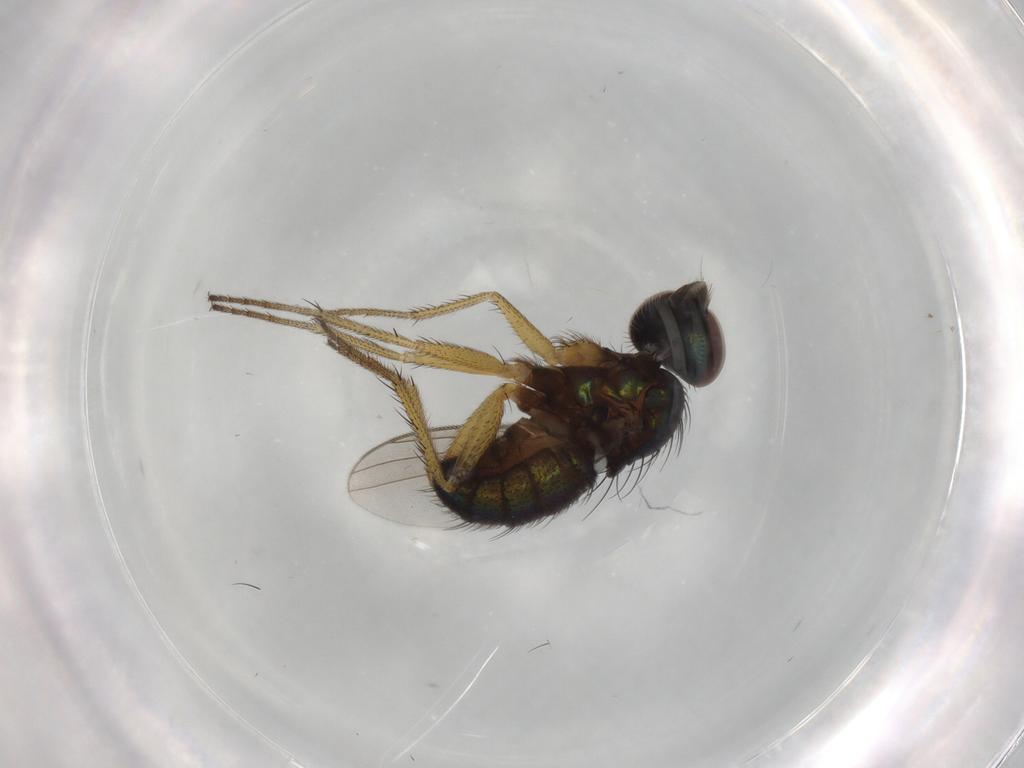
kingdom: Animalia
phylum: Arthropoda
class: Insecta
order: Diptera
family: Dolichopodidae
